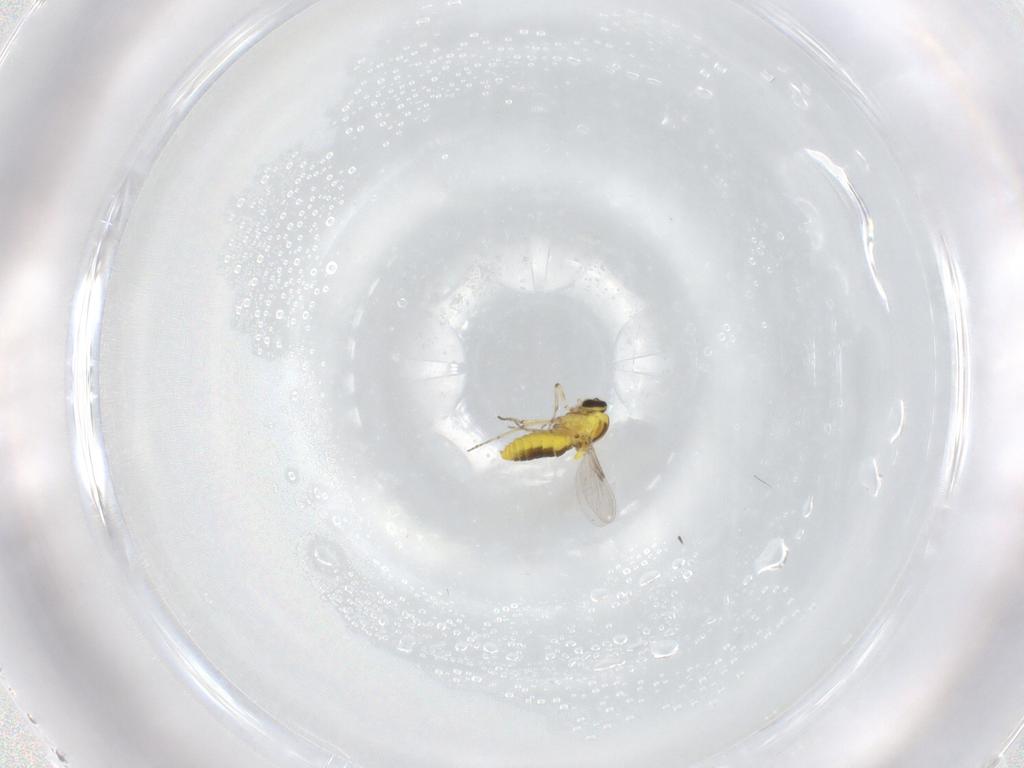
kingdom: Animalia
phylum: Arthropoda
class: Insecta
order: Diptera
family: Ceratopogonidae
